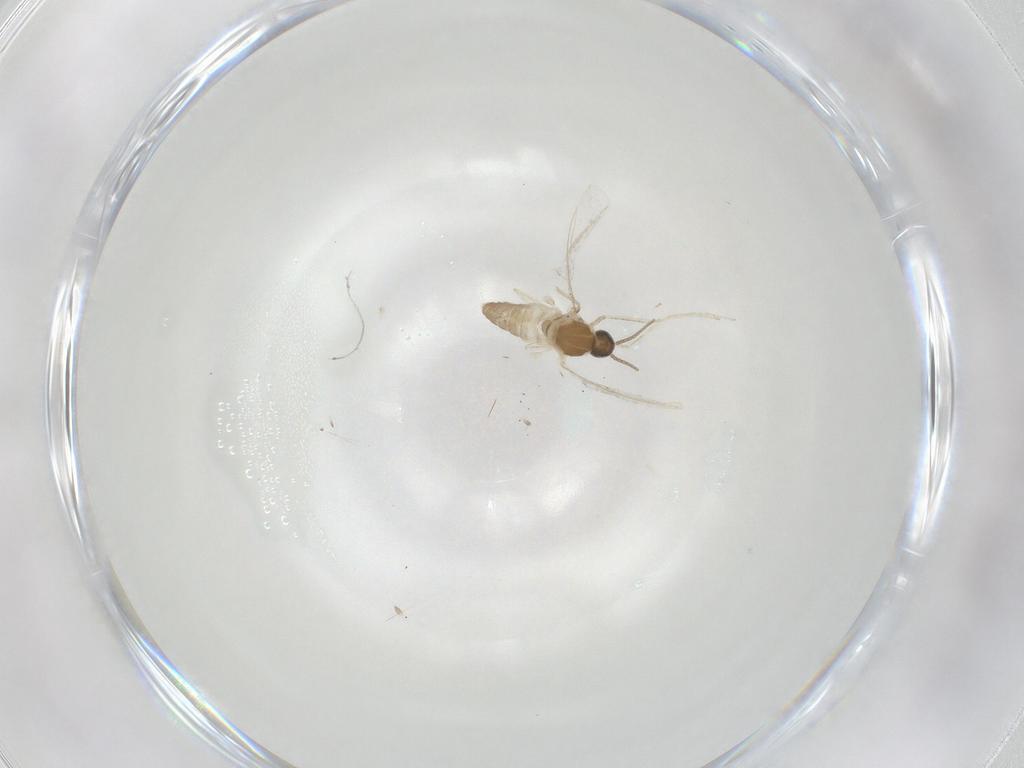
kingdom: Animalia
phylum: Arthropoda
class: Insecta
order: Diptera
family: Cecidomyiidae
